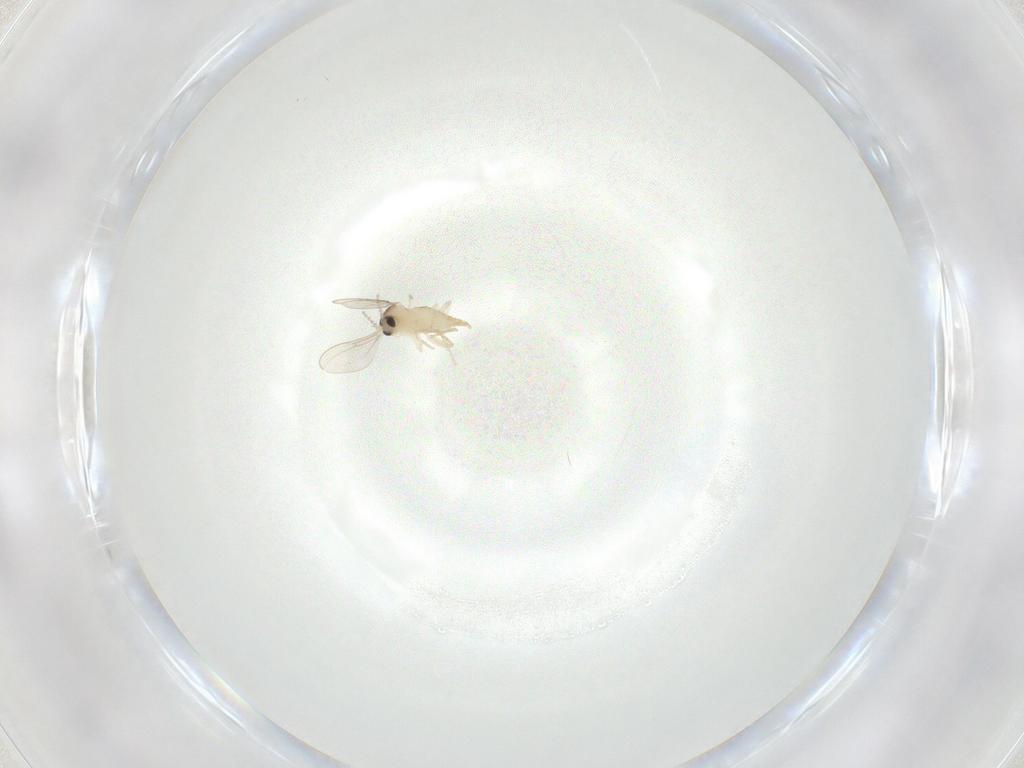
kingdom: Animalia
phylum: Arthropoda
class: Insecta
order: Diptera
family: Cecidomyiidae
